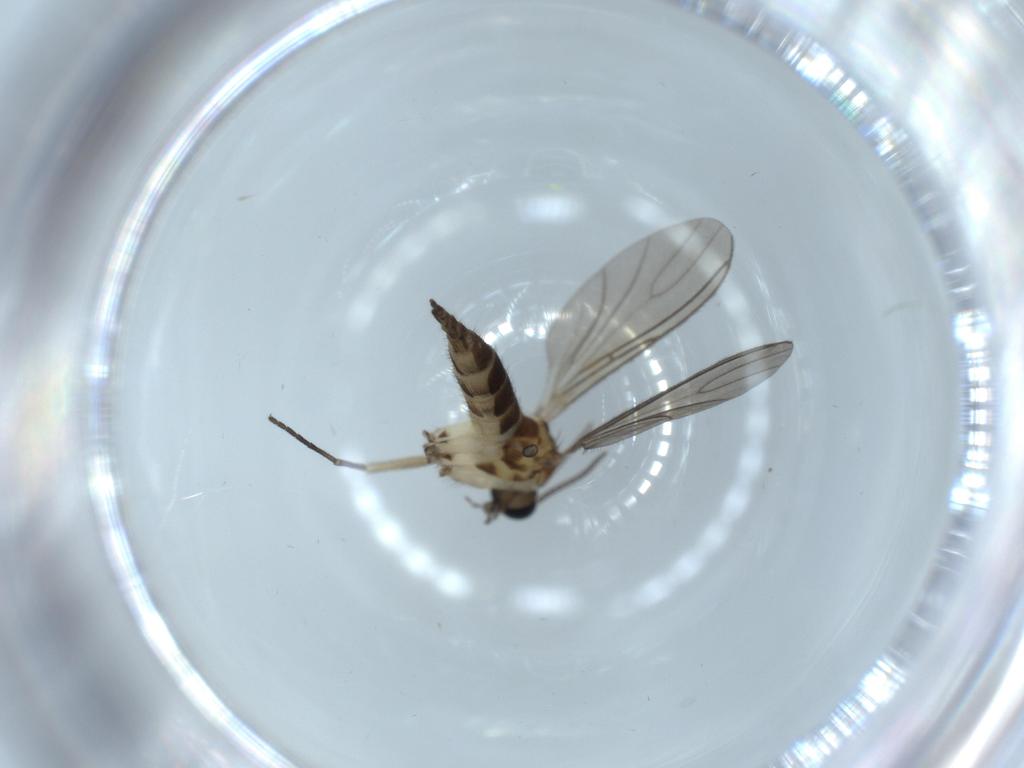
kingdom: Animalia
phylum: Arthropoda
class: Insecta
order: Diptera
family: Sciaridae
